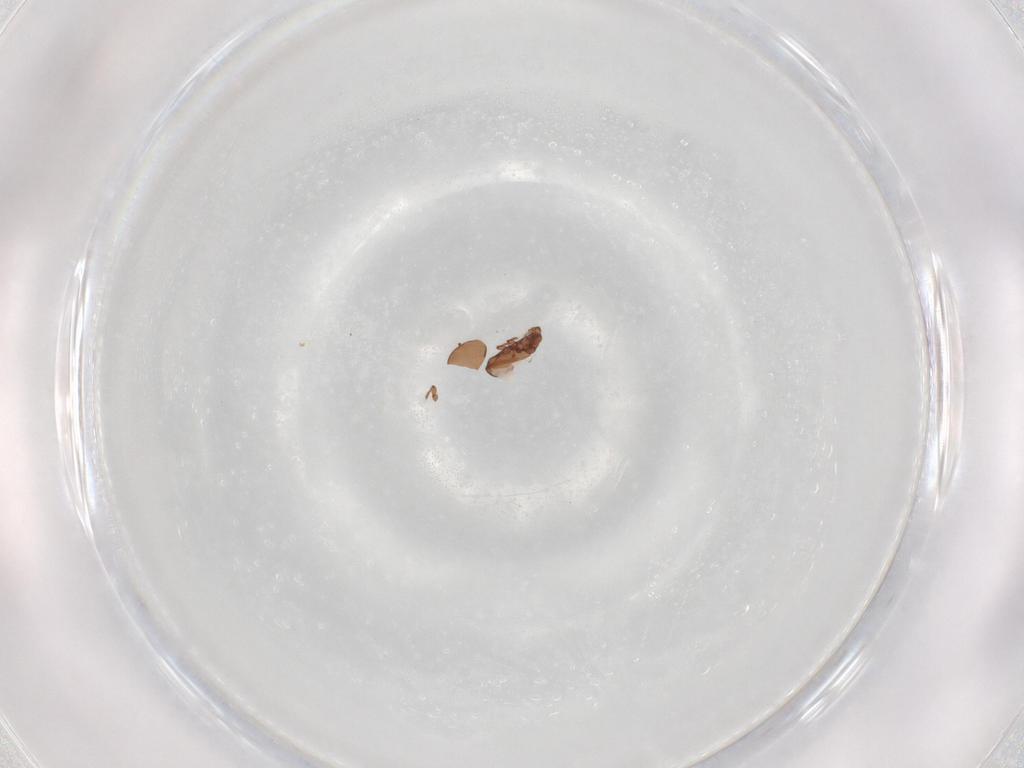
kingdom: Animalia
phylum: Arthropoda
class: Arachnida
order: Sarcoptiformes
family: Eremaeidae
